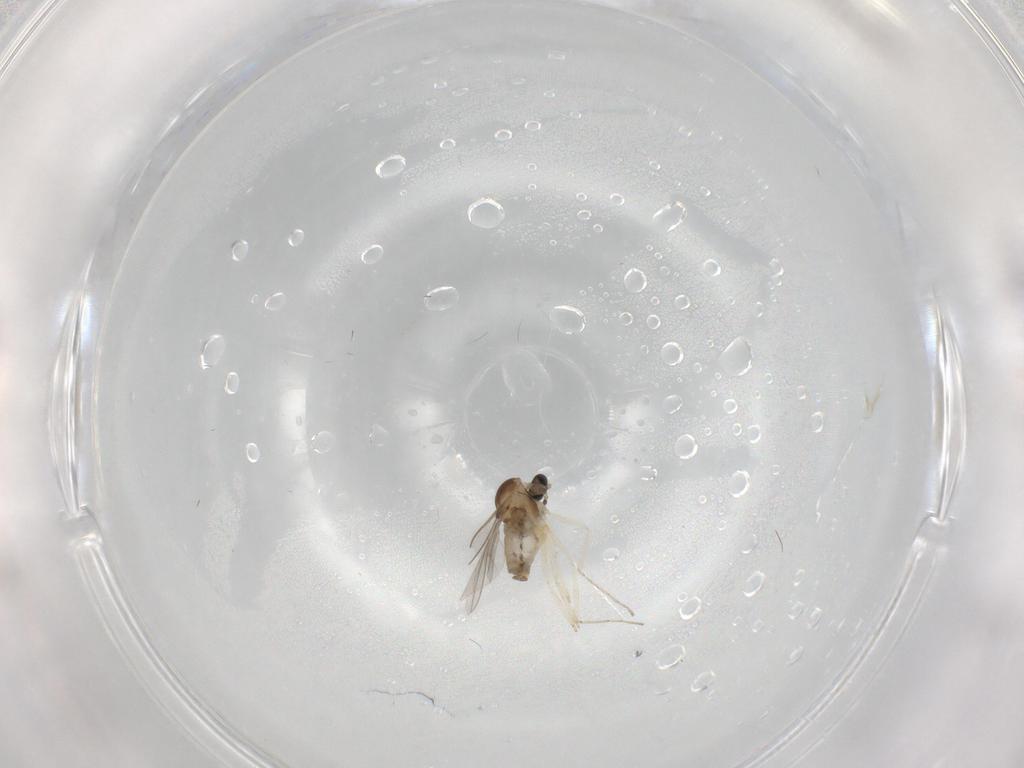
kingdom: Animalia
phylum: Arthropoda
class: Insecta
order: Diptera
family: Cecidomyiidae
